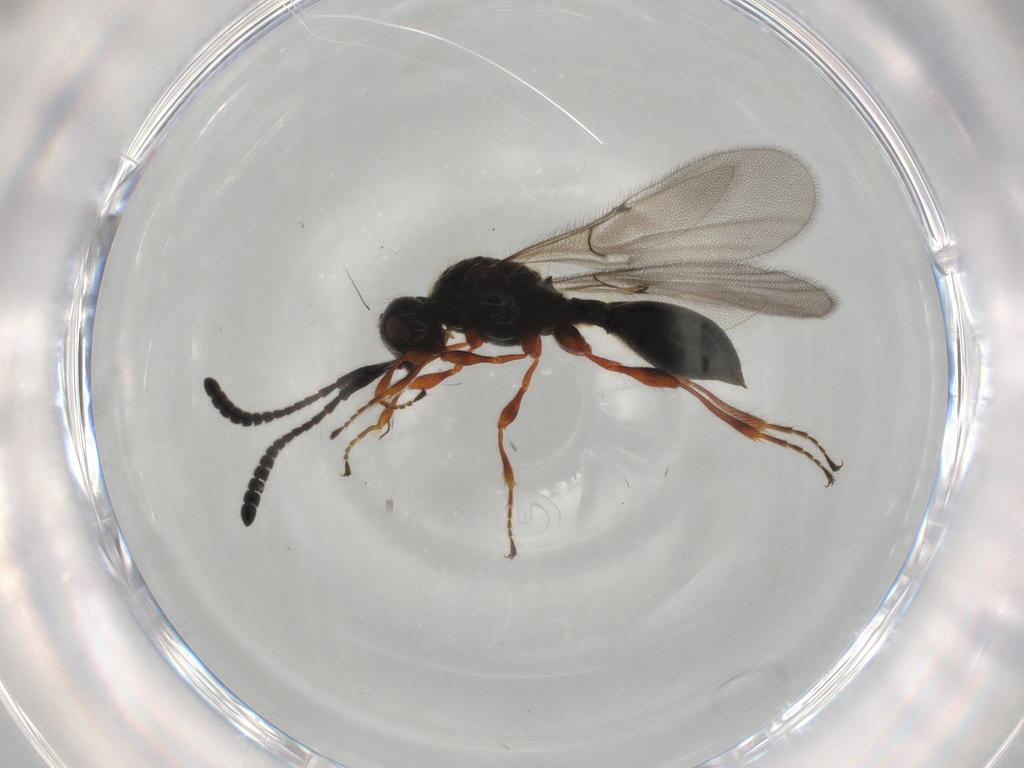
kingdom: Animalia
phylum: Arthropoda
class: Insecta
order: Hymenoptera
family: Diapriidae
